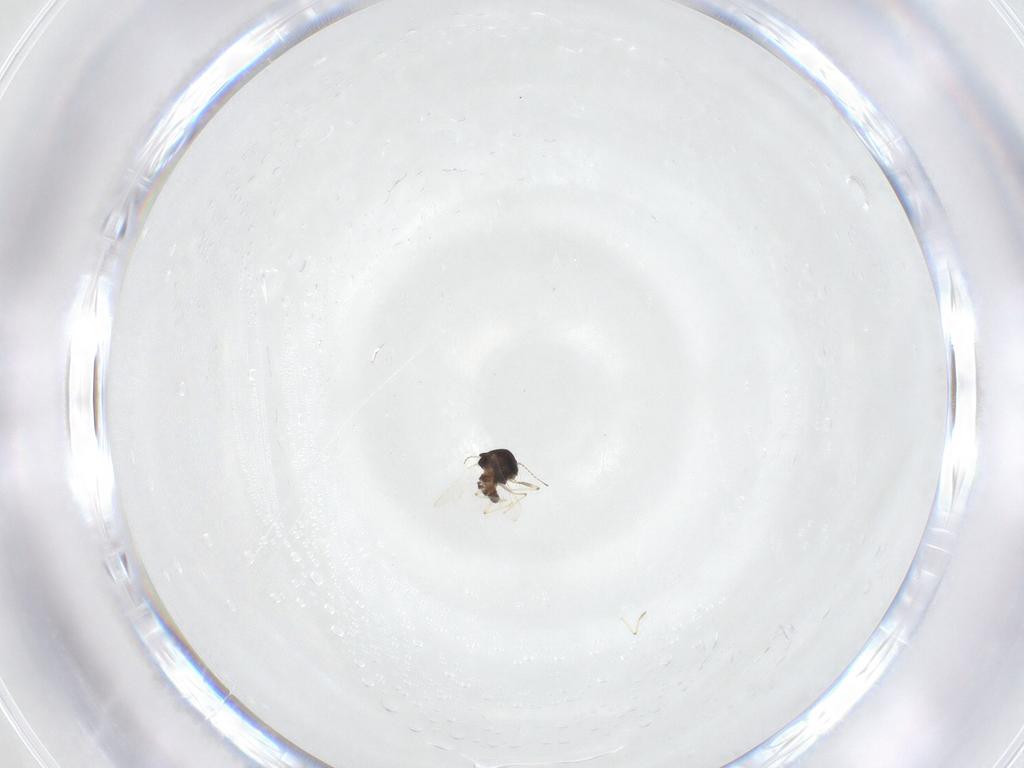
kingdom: Animalia
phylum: Arthropoda
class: Insecta
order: Diptera
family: Chironomidae
